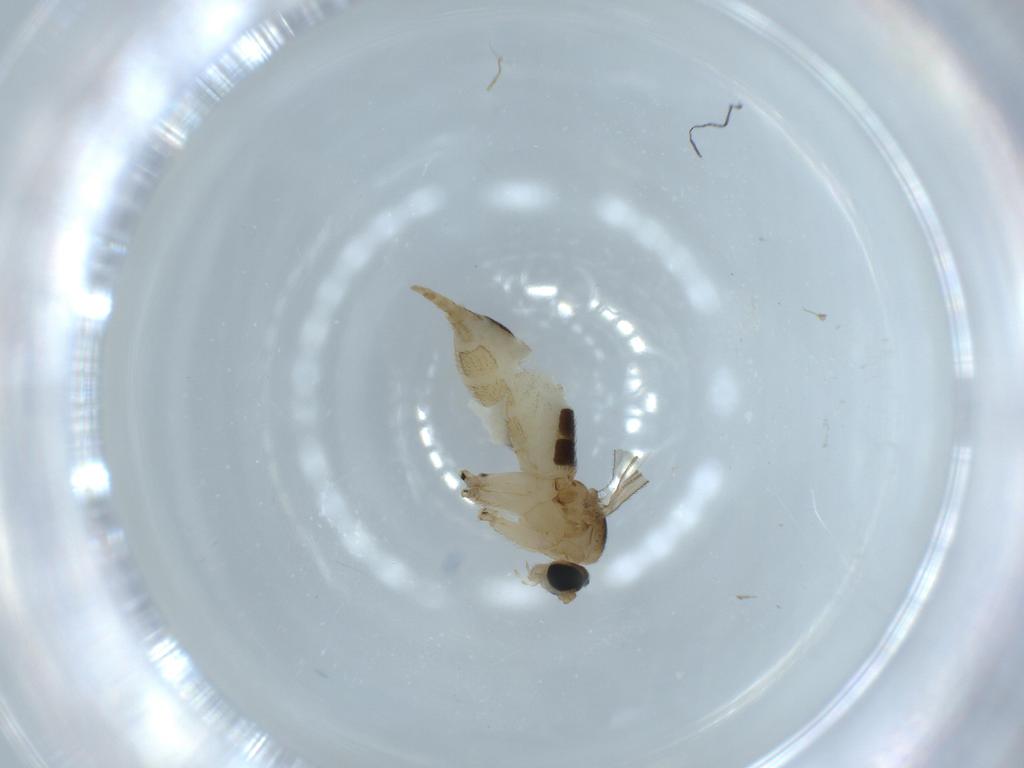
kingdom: Animalia
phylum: Arthropoda
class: Insecta
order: Diptera
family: Sciaridae
